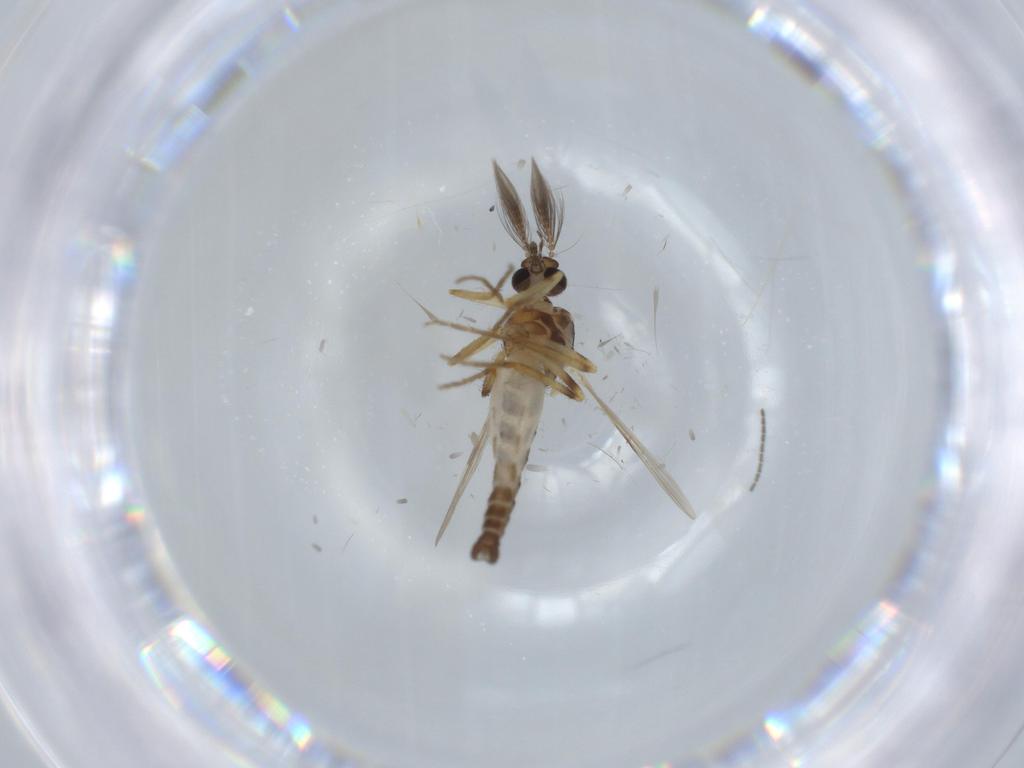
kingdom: Animalia
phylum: Arthropoda
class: Insecta
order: Diptera
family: Ceratopogonidae
